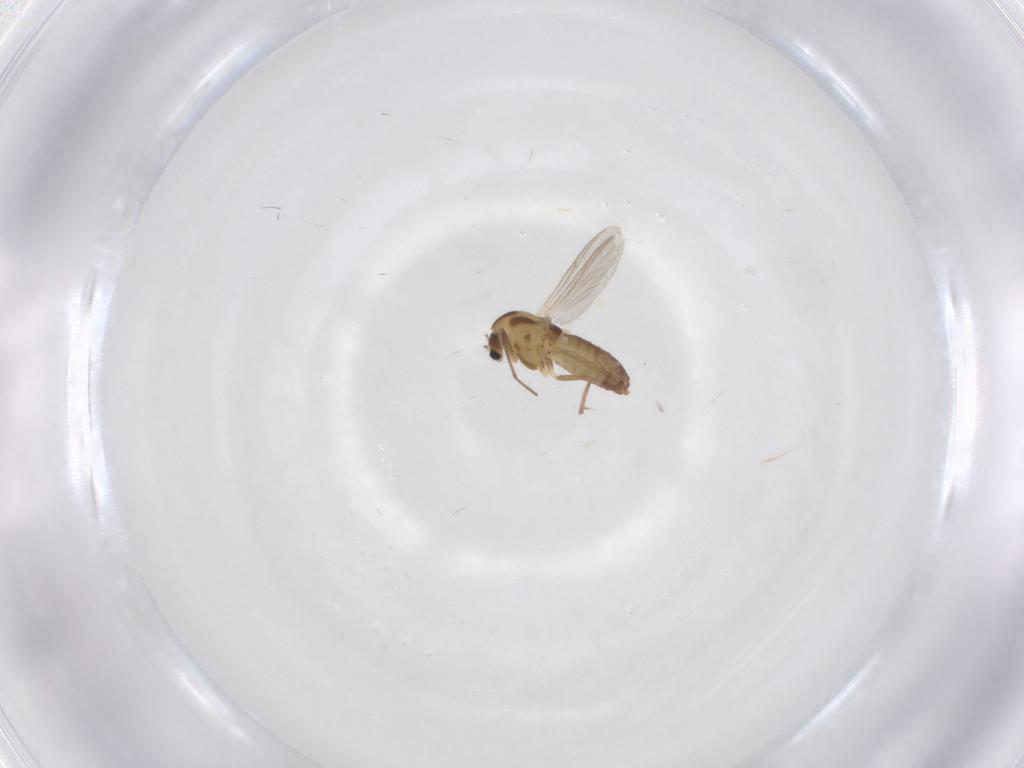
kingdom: Animalia
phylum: Arthropoda
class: Insecta
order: Diptera
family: Chironomidae
